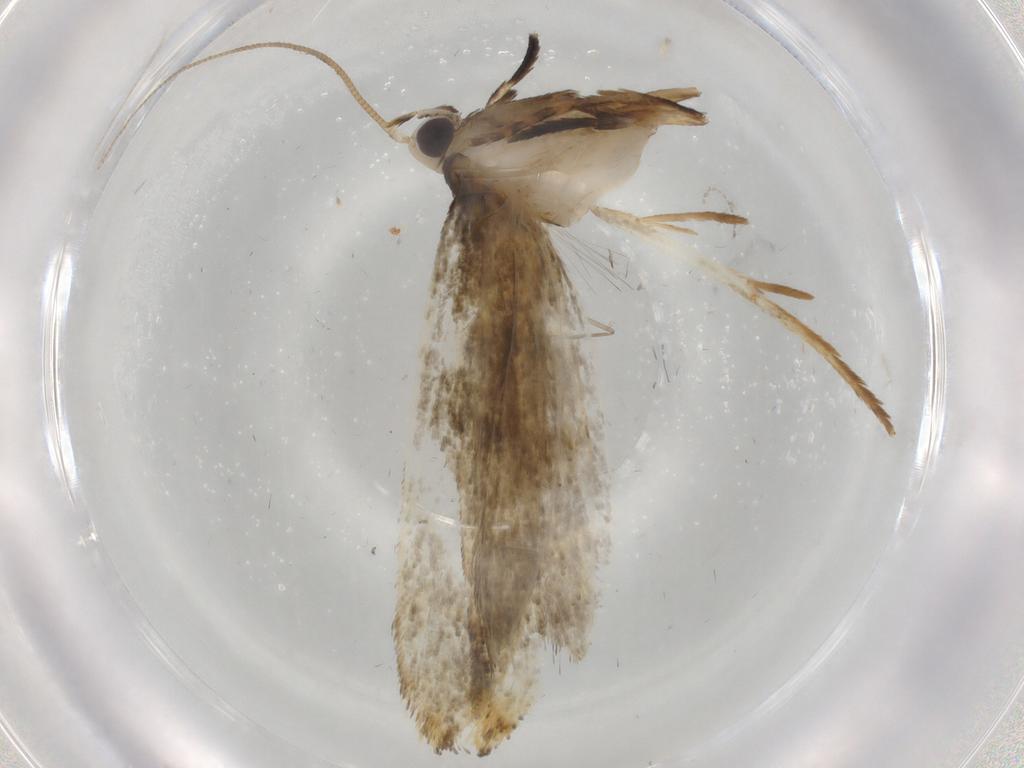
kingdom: Animalia
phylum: Arthropoda
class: Insecta
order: Lepidoptera
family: Tineidae
